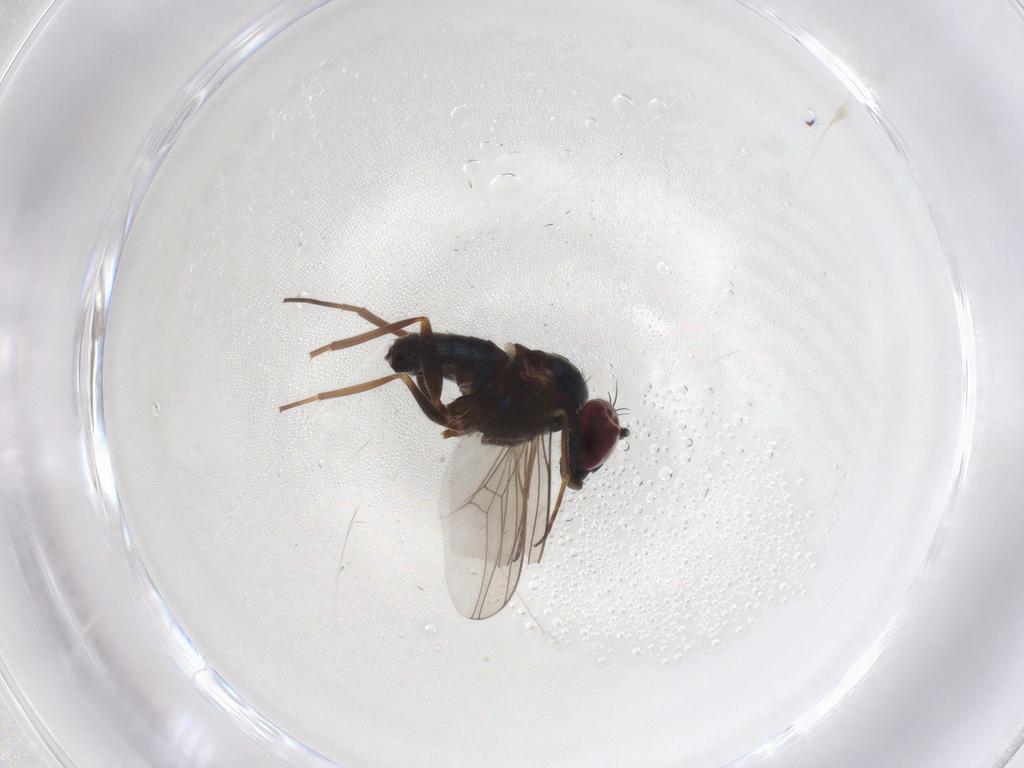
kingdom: Animalia
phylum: Arthropoda
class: Insecta
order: Diptera
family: Dolichopodidae
